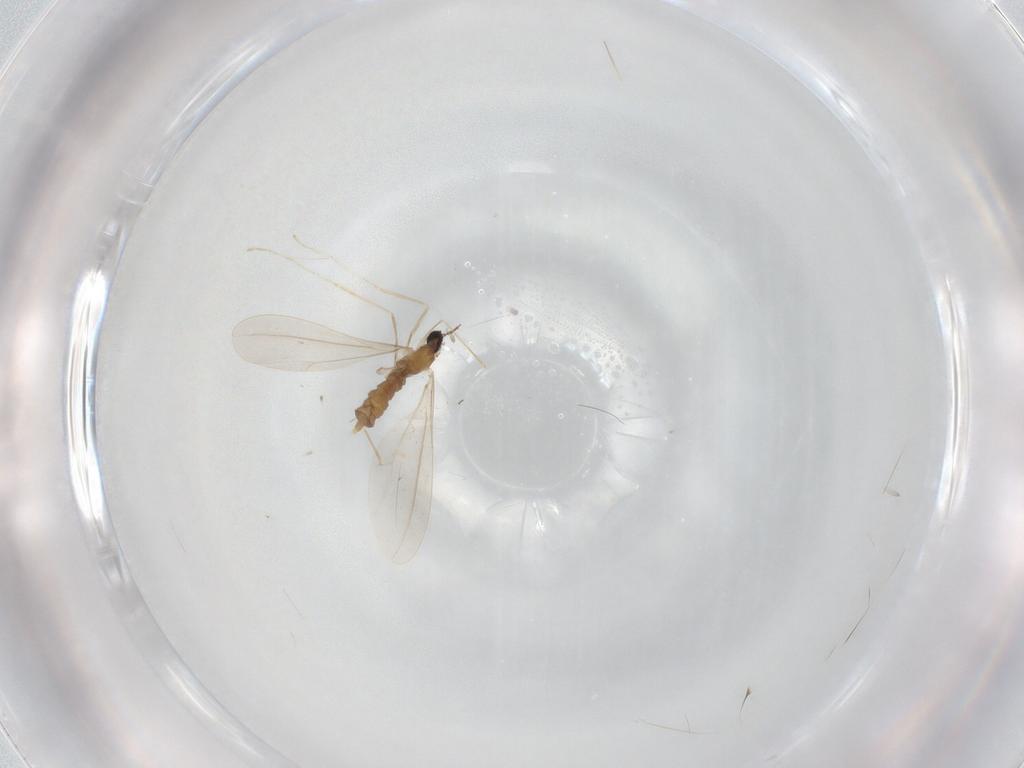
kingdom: Animalia
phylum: Arthropoda
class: Insecta
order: Diptera
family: Cecidomyiidae
